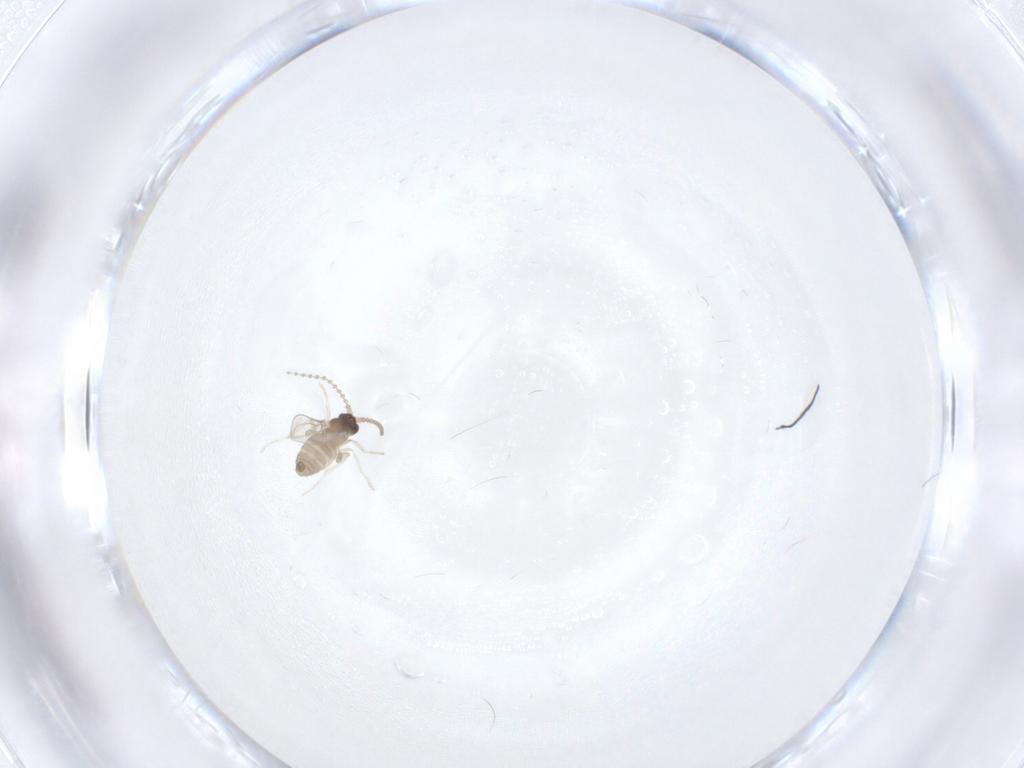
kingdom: Animalia
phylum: Arthropoda
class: Insecta
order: Diptera
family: Cecidomyiidae
